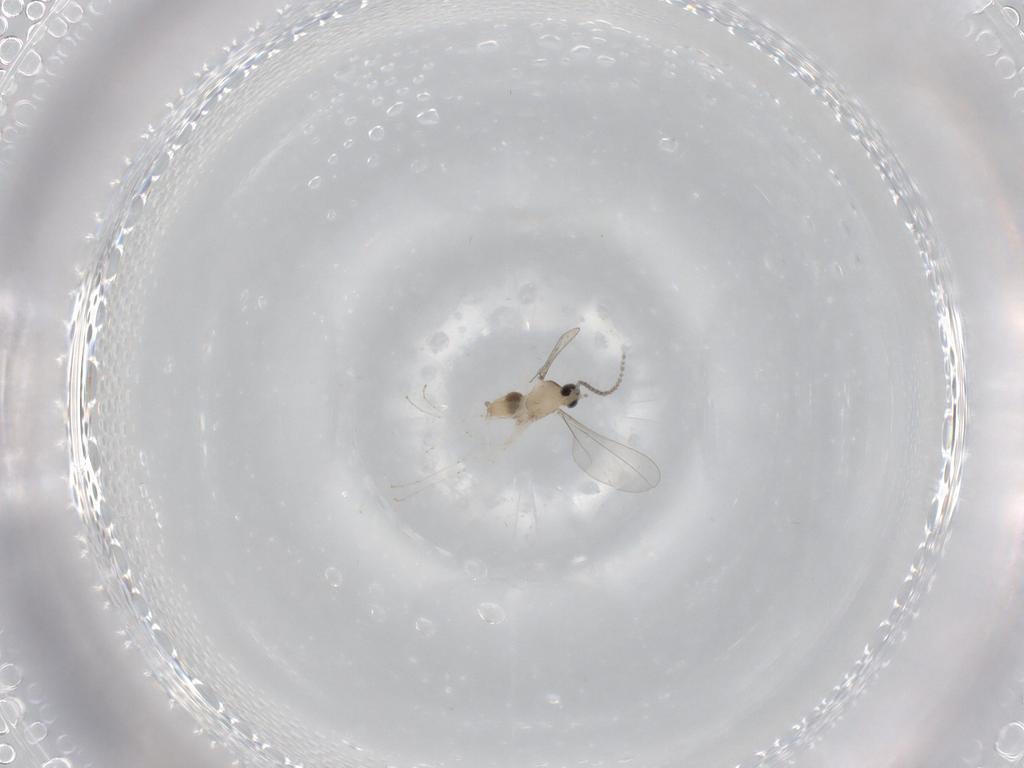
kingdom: Animalia
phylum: Arthropoda
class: Insecta
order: Diptera
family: Cecidomyiidae
